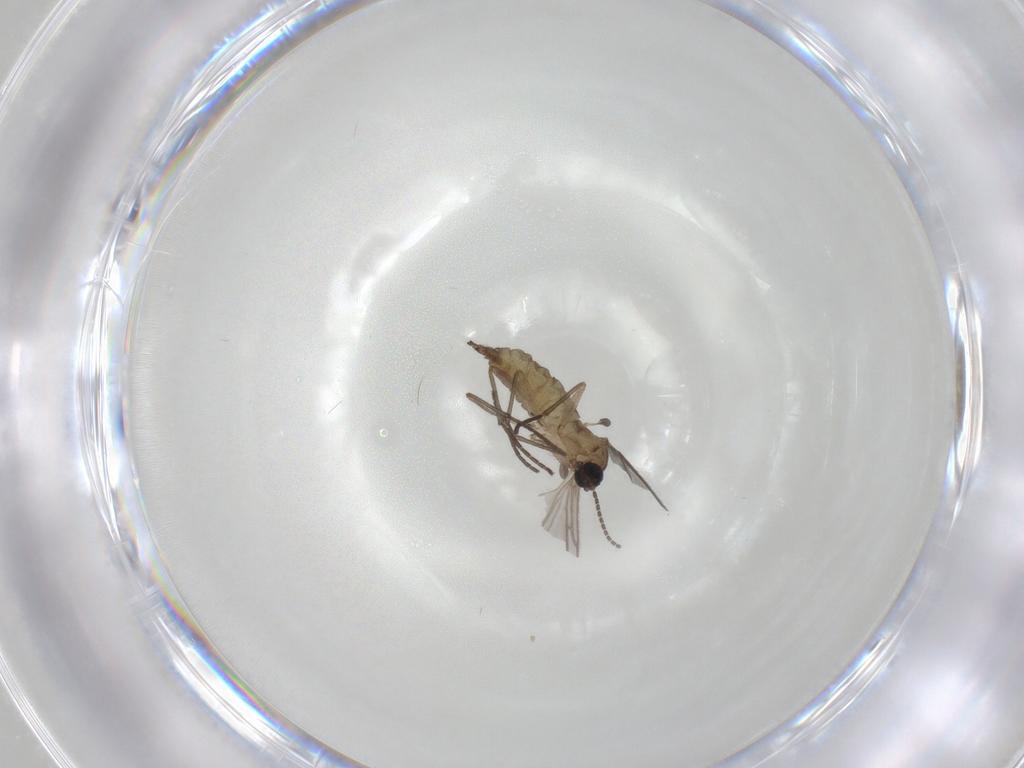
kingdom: Animalia
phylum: Arthropoda
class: Insecta
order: Diptera
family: Sciaridae
